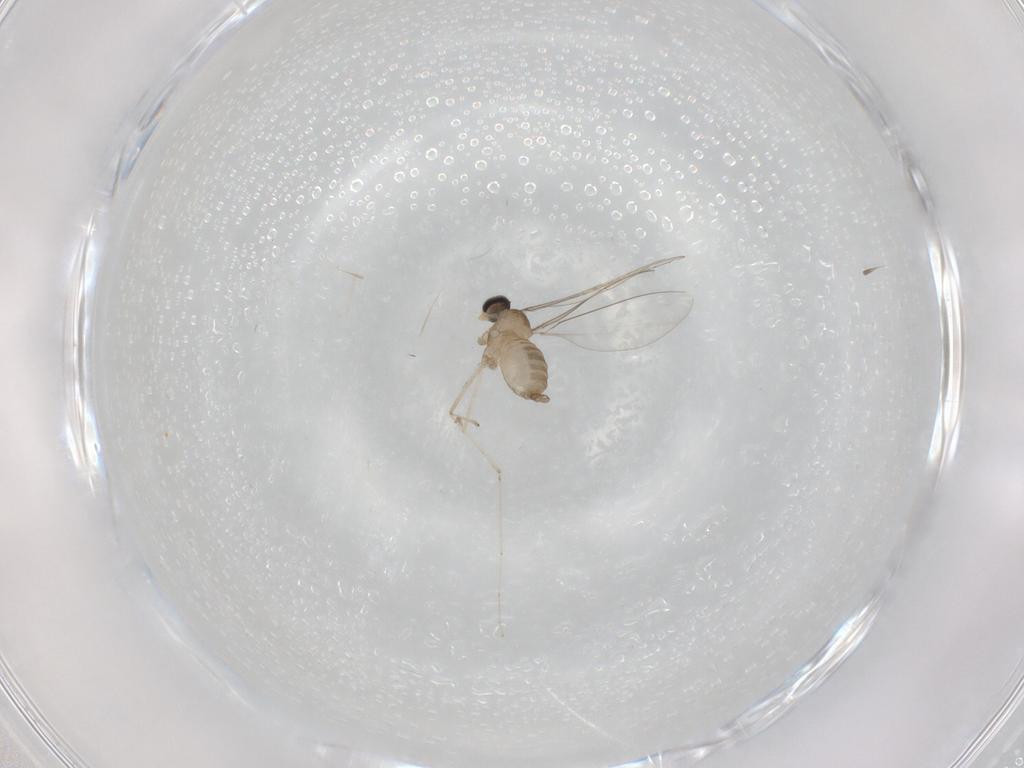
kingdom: Animalia
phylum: Arthropoda
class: Insecta
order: Diptera
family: Cecidomyiidae
